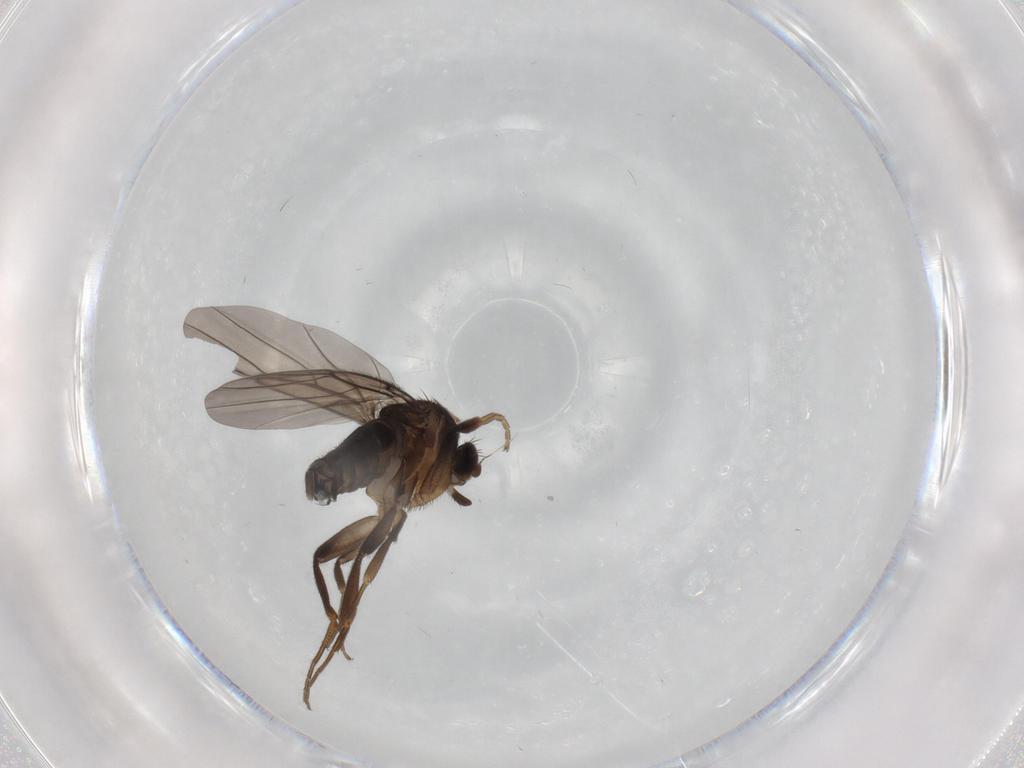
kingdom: Animalia
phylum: Arthropoda
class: Insecta
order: Diptera
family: Phoridae
